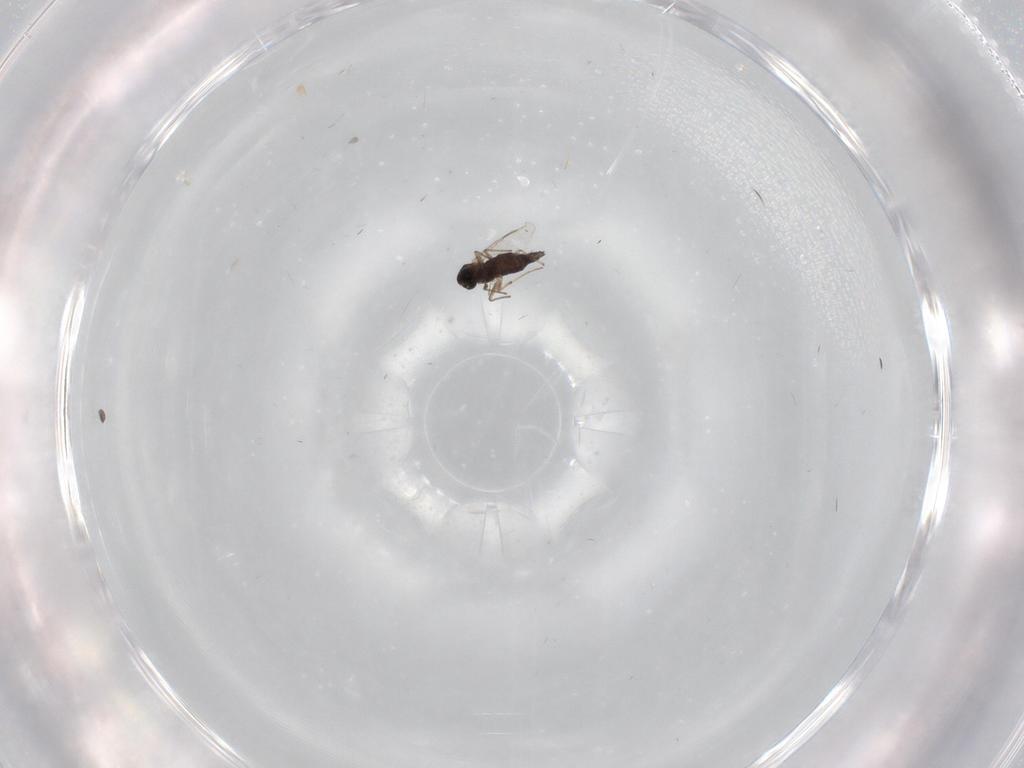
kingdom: Animalia
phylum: Arthropoda
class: Insecta
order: Diptera
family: Chironomidae
